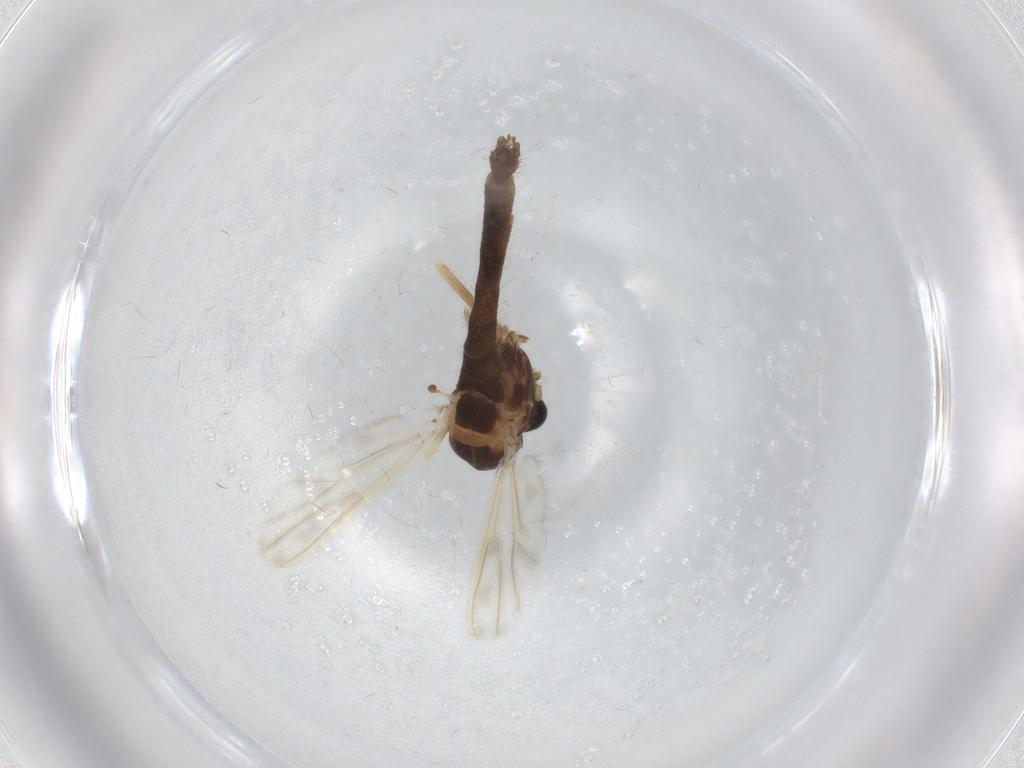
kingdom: Animalia
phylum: Arthropoda
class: Insecta
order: Diptera
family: Chironomidae
